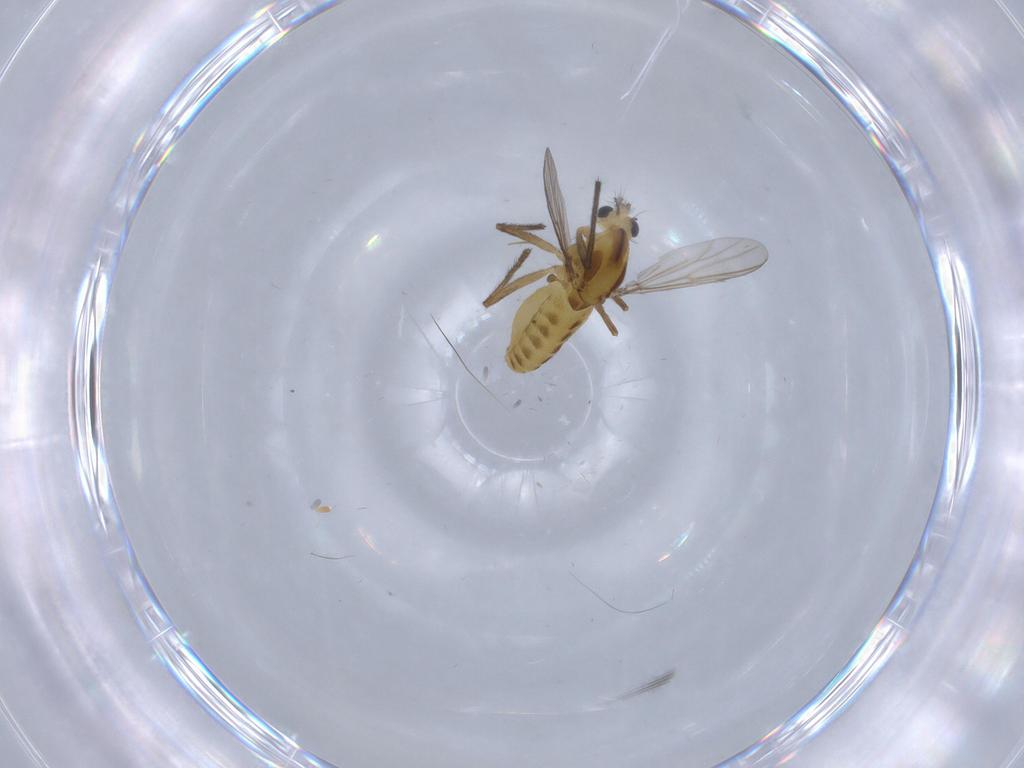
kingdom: Animalia
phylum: Arthropoda
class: Insecta
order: Diptera
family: Chironomidae
